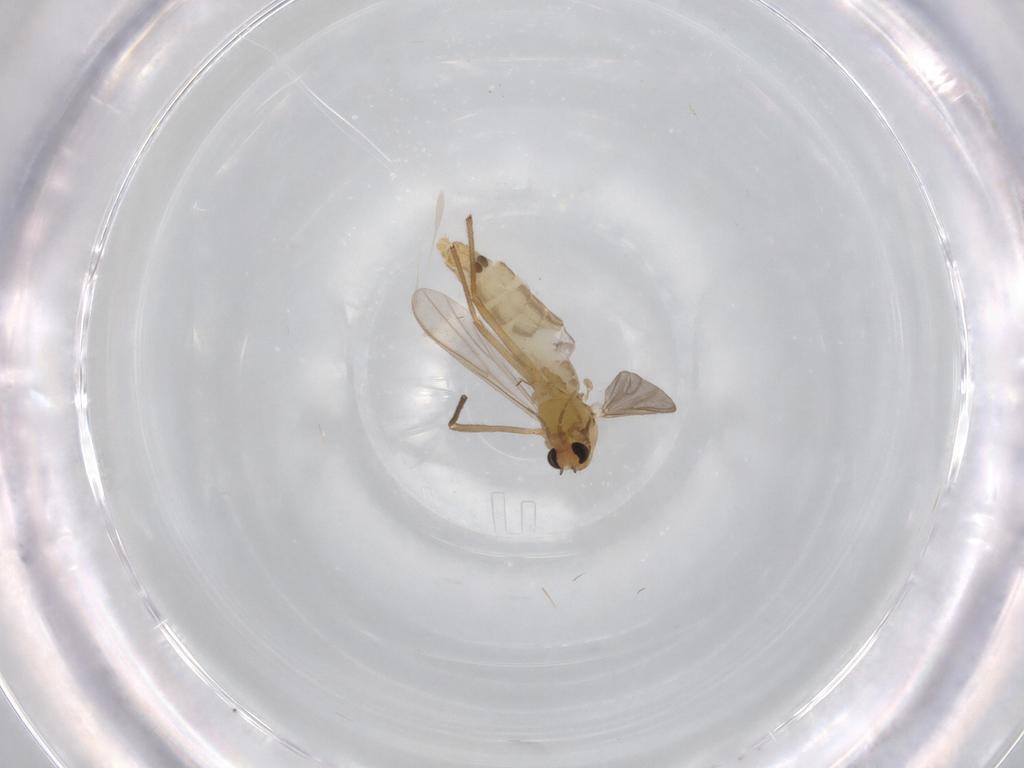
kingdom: Animalia
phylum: Arthropoda
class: Insecta
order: Diptera
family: Chironomidae
